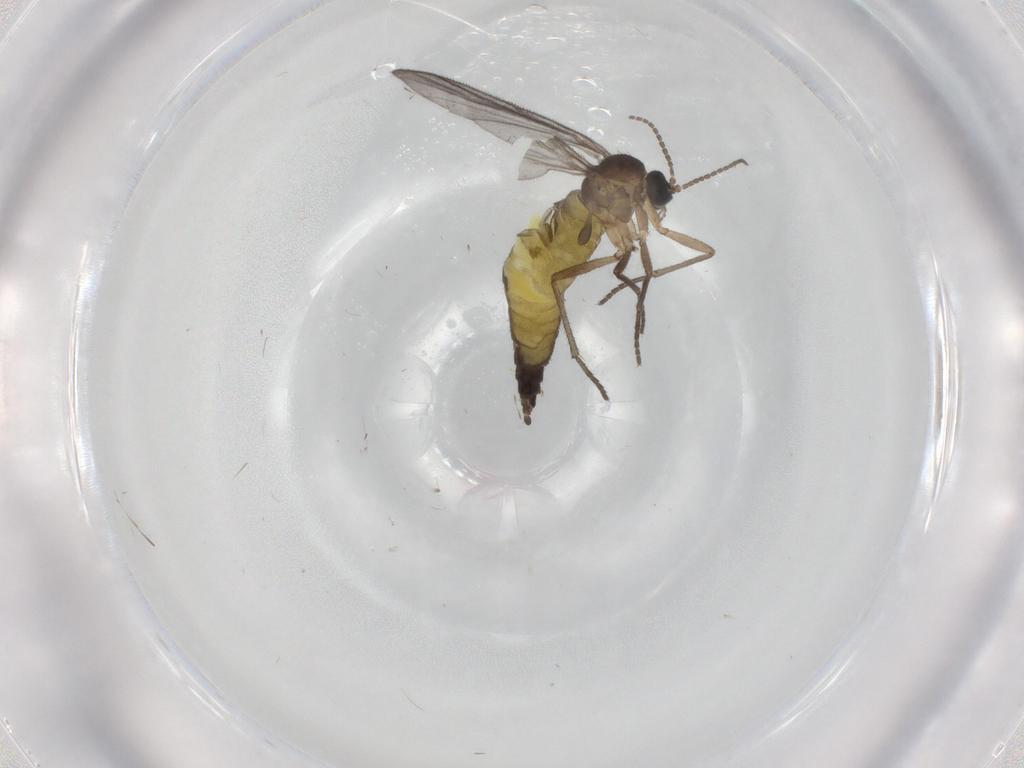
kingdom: Animalia
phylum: Arthropoda
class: Insecta
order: Diptera
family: Sciaridae
